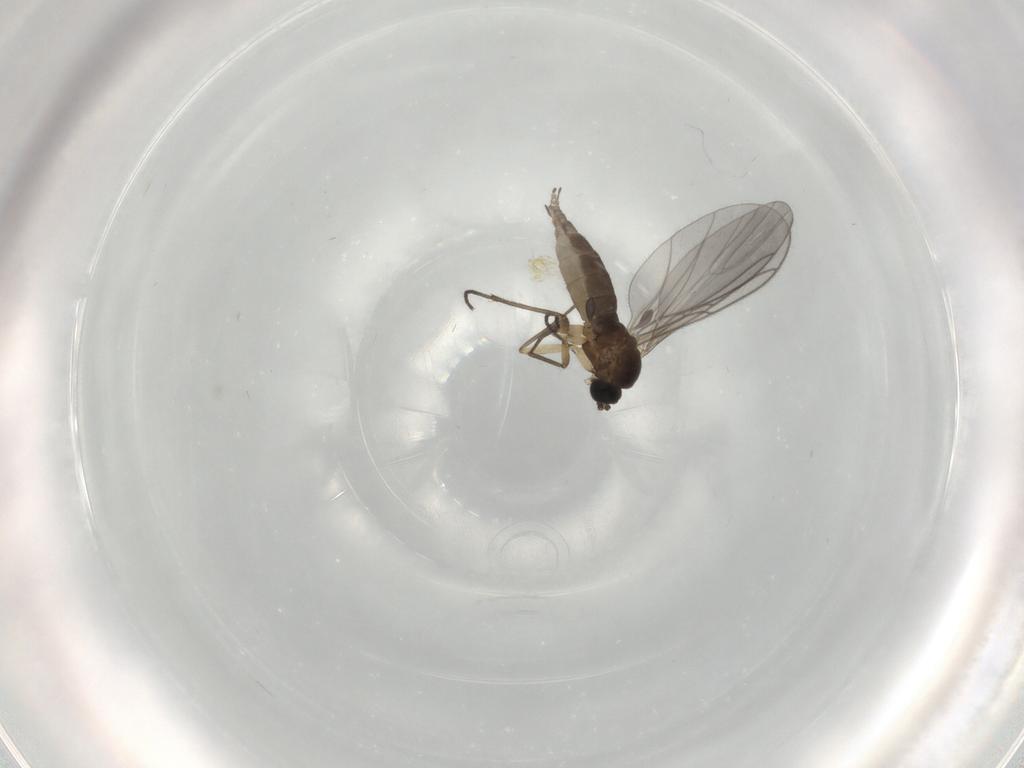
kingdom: Animalia
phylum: Arthropoda
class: Insecta
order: Diptera
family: Sciaridae
